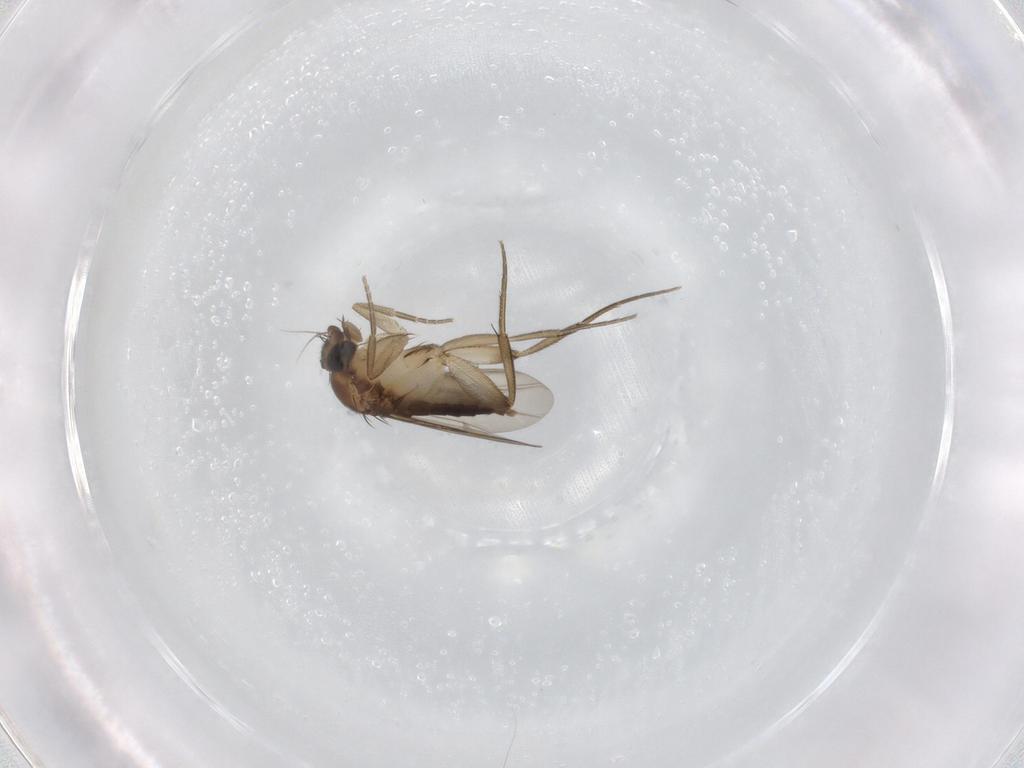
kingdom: Animalia
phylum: Arthropoda
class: Insecta
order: Diptera
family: Phoridae
